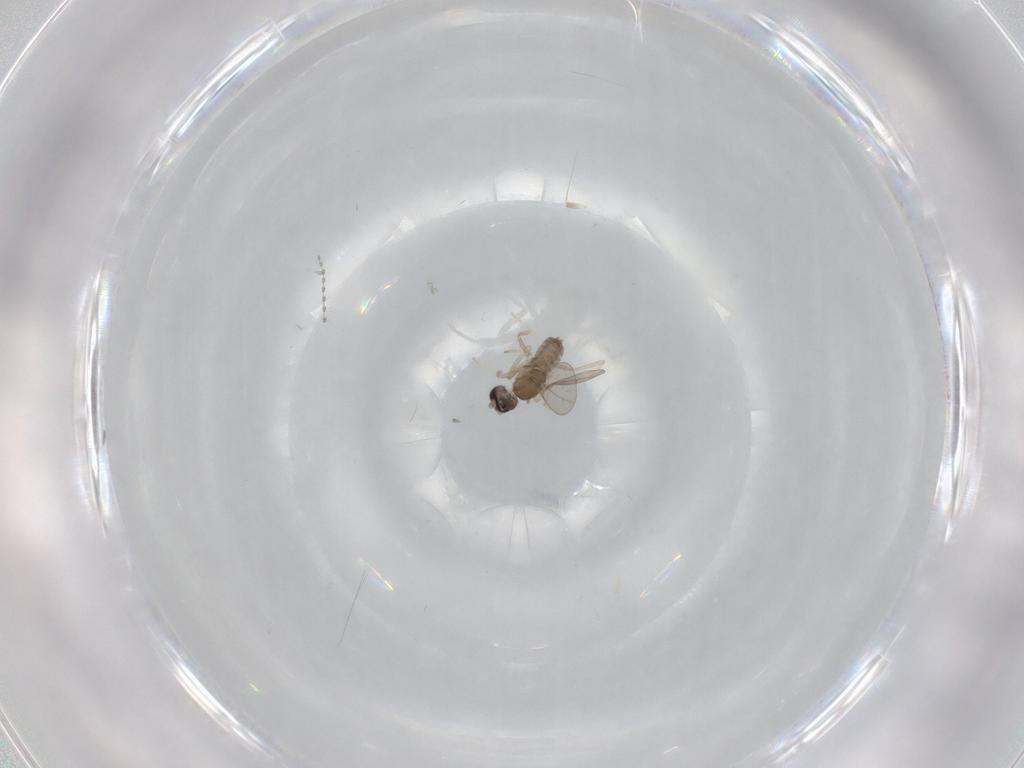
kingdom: Animalia
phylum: Arthropoda
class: Insecta
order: Diptera
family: Cecidomyiidae
